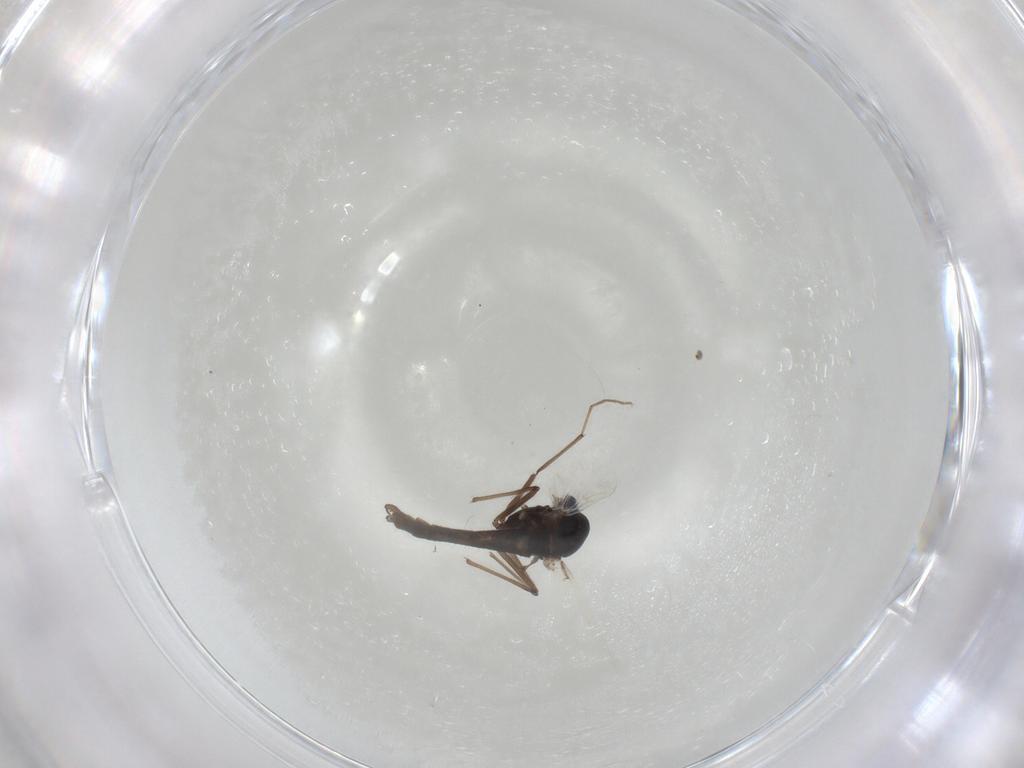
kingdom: Animalia
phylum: Arthropoda
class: Insecta
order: Diptera
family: Chironomidae
